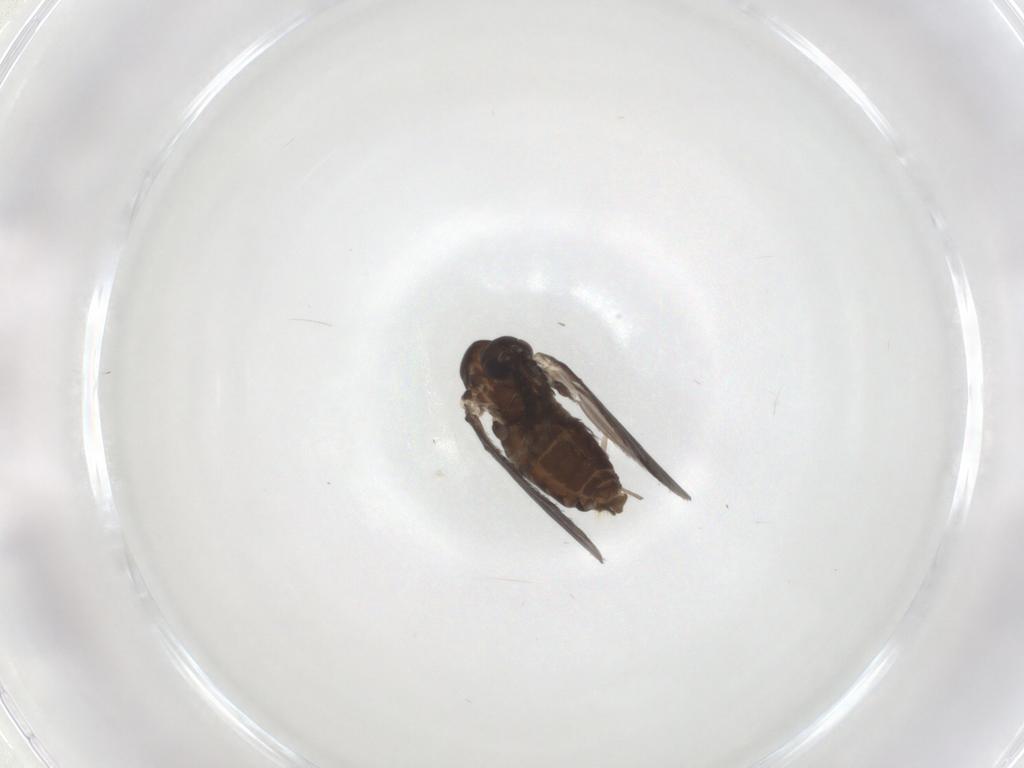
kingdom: Animalia
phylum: Arthropoda
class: Insecta
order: Diptera
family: Chironomidae
